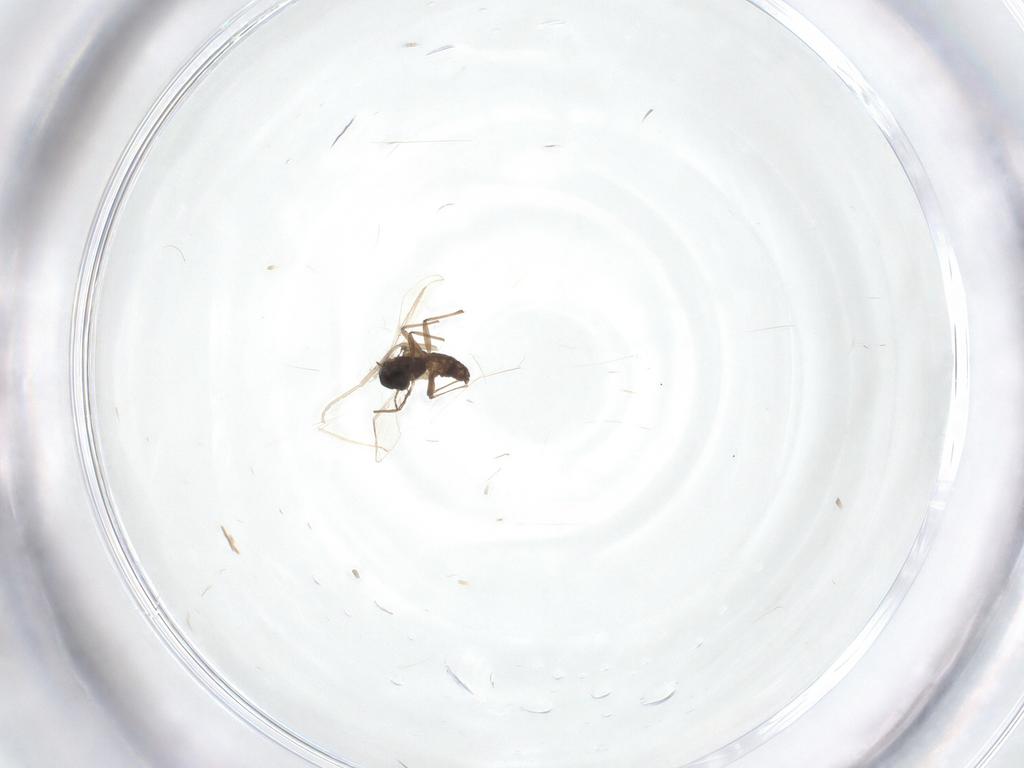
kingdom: Animalia
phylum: Arthropoda
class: Insecta
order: Diptera
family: Chironomidae
